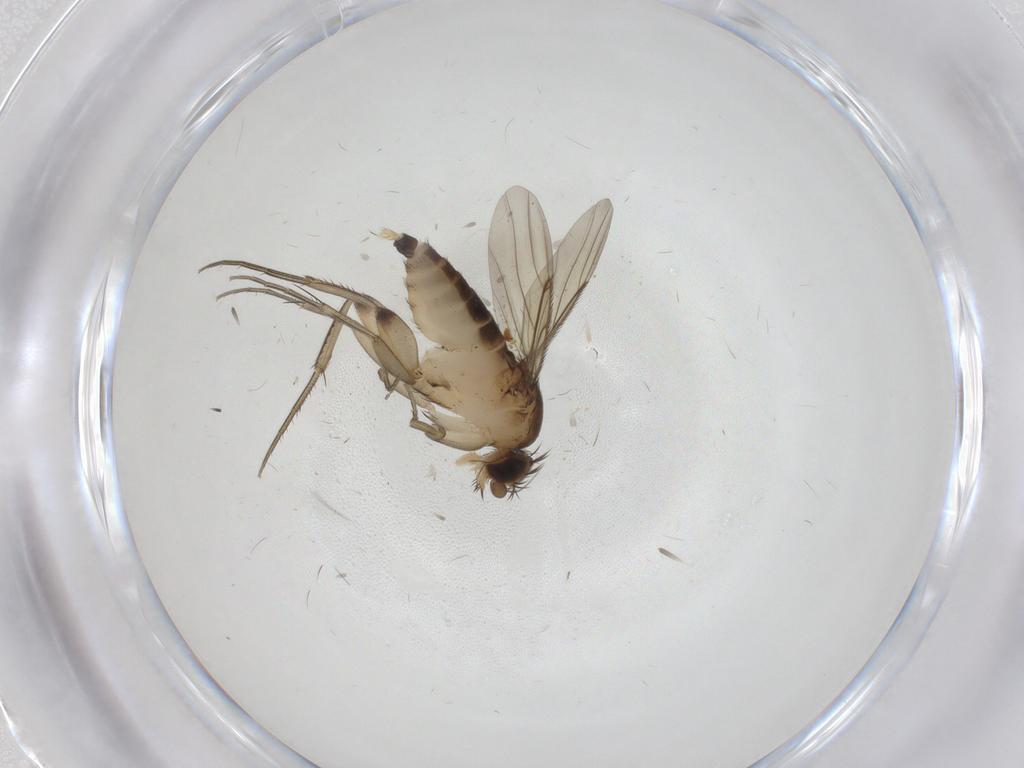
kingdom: Animalia
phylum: Arthropoda
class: Insecta
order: Diptera
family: Phoridae
